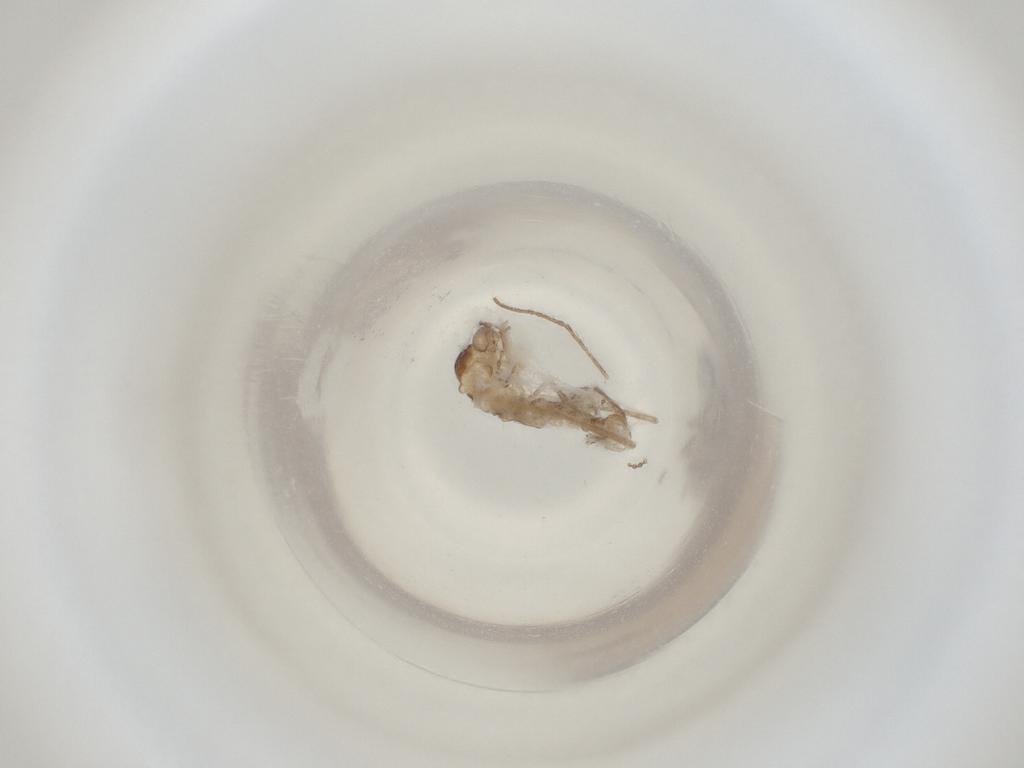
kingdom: Animalia
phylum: Arthropoda
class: Insecta
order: Diptera
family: Cecidomyiidae
